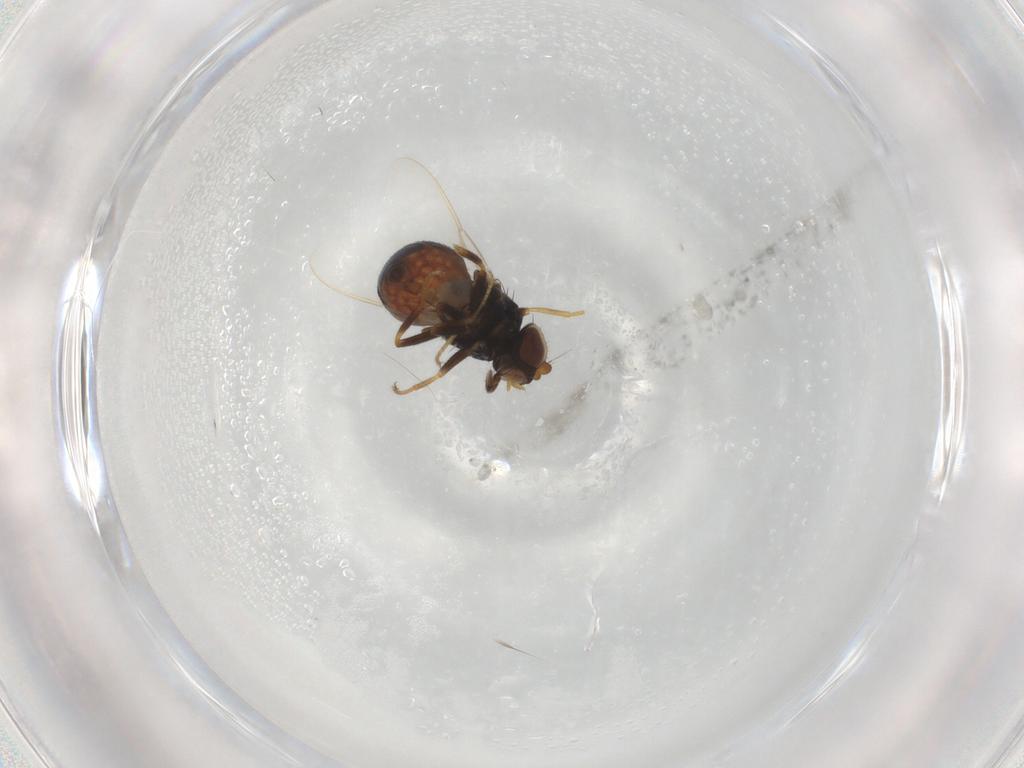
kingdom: Animalia
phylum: Arthropoda
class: Insecta
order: Diptera
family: Chloropidae
